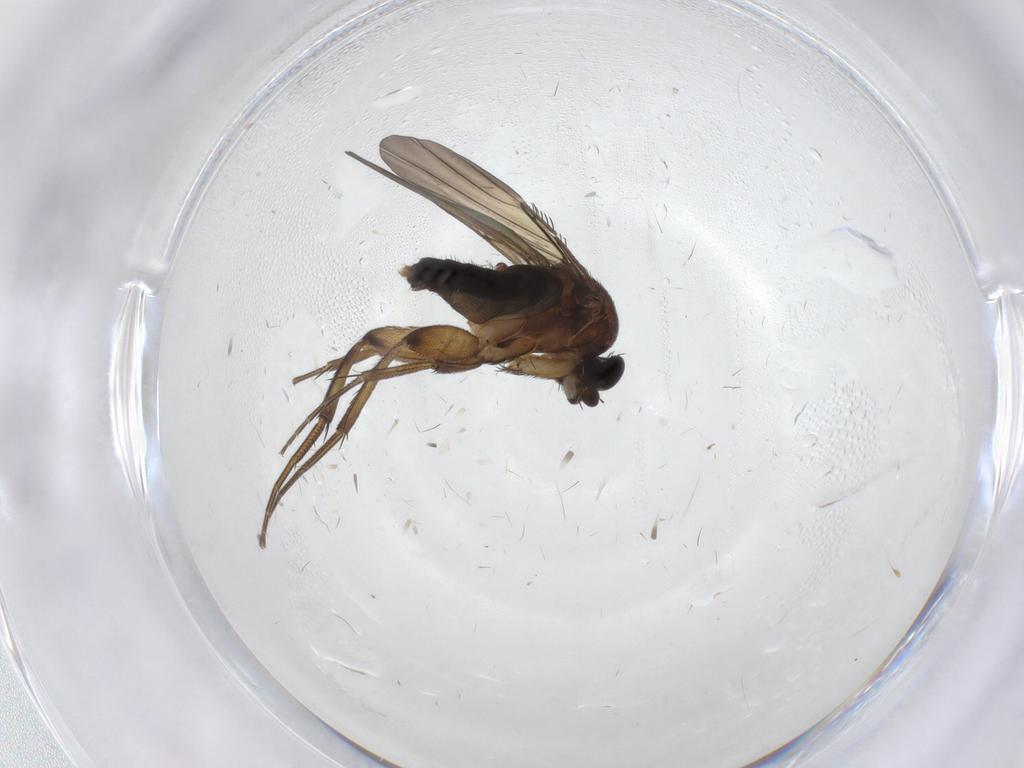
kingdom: Animalia
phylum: Arthropoda
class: Insecta
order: Diptera
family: Phoridae
